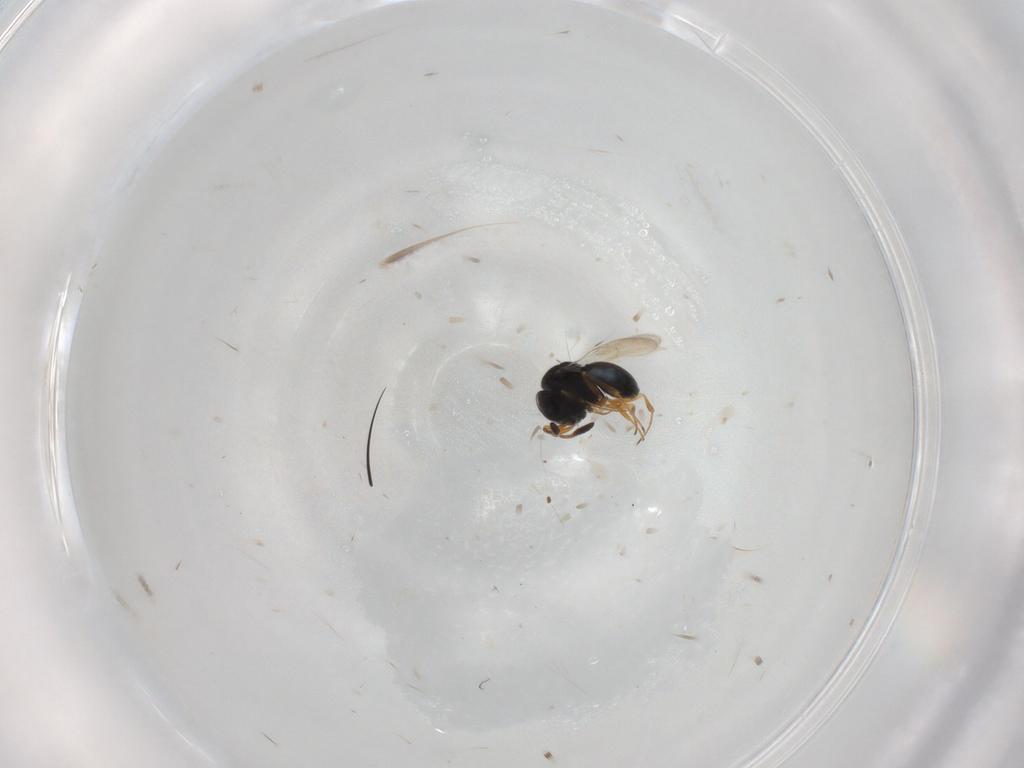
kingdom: Animalia
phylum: Arthropoda
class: Insecta
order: Hymenoptera
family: Scelionidae
